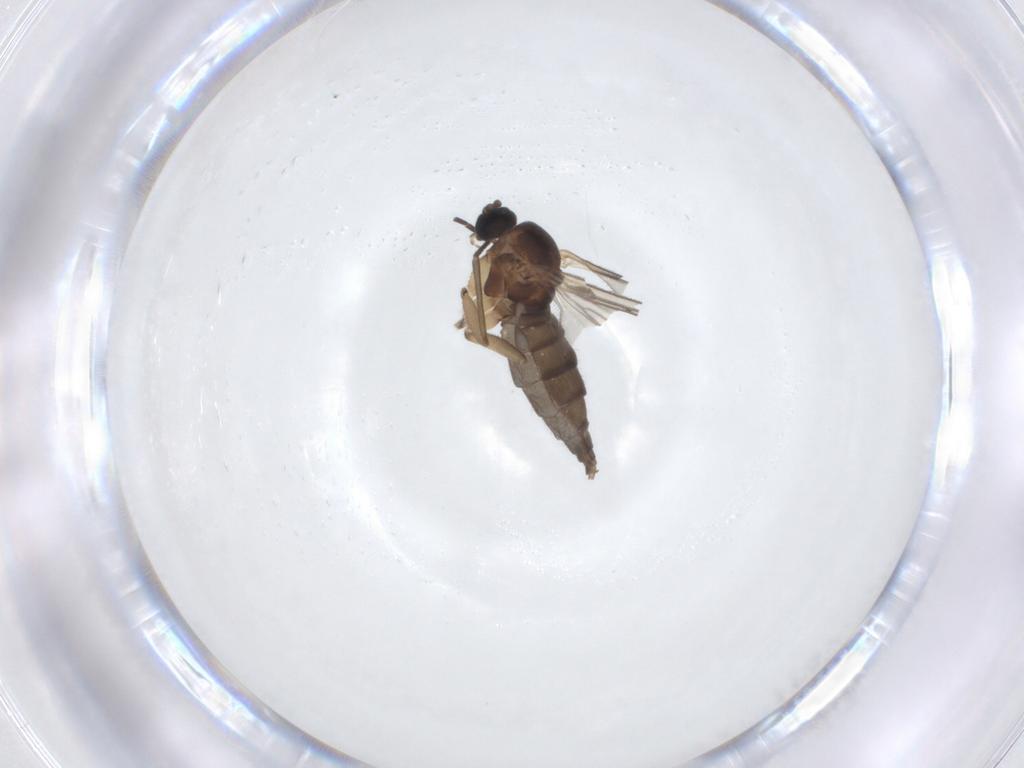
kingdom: Animalia
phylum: Arthropoda
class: Insecta
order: Diptera
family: Sciaridae
